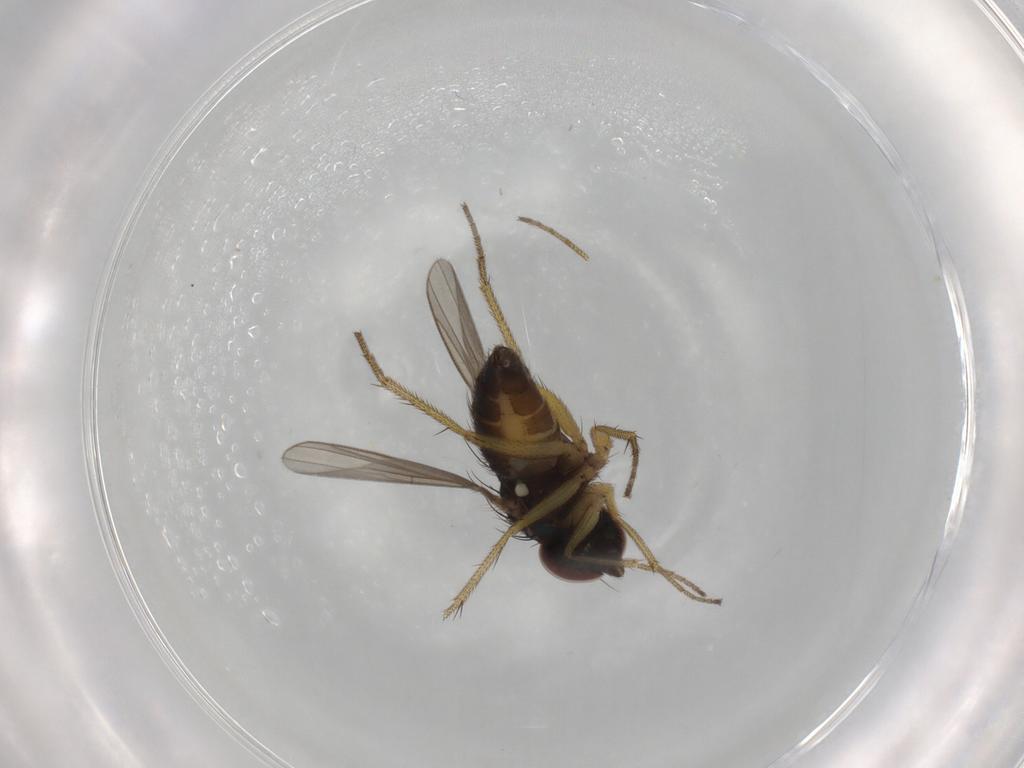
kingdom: Animalia
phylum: Arthropoda
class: Insecta
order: Diptera
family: Dolichopodidae
